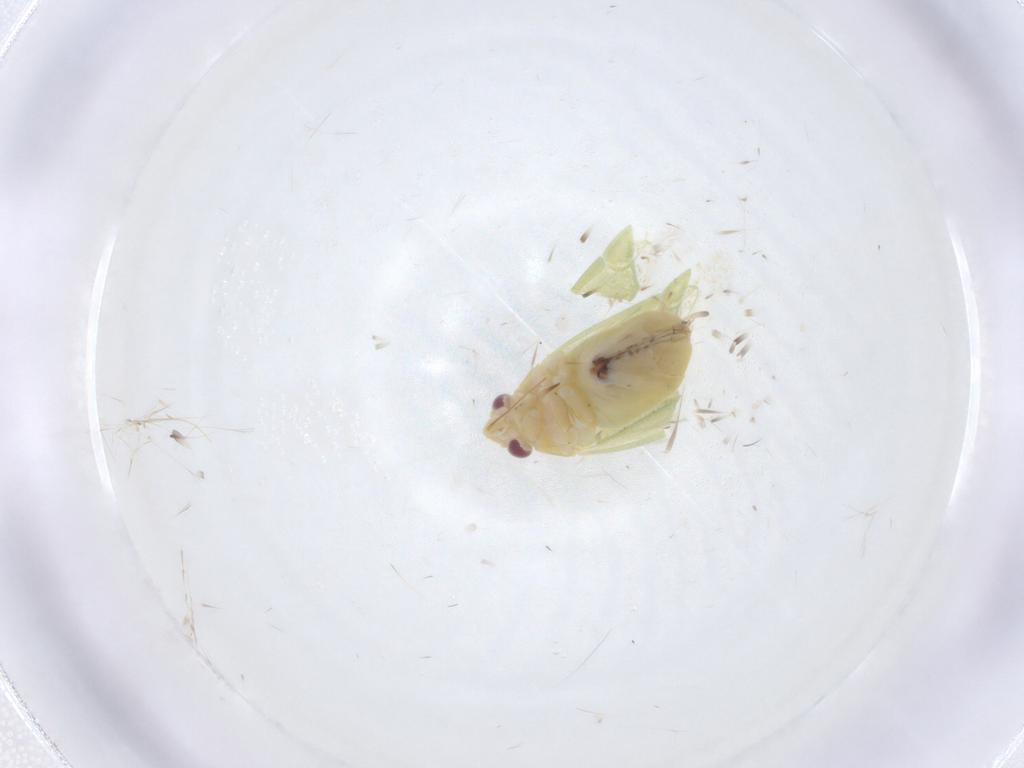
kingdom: Animalia
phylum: Arthropoda
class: Insecta
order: Hemiptera
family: Miridae
